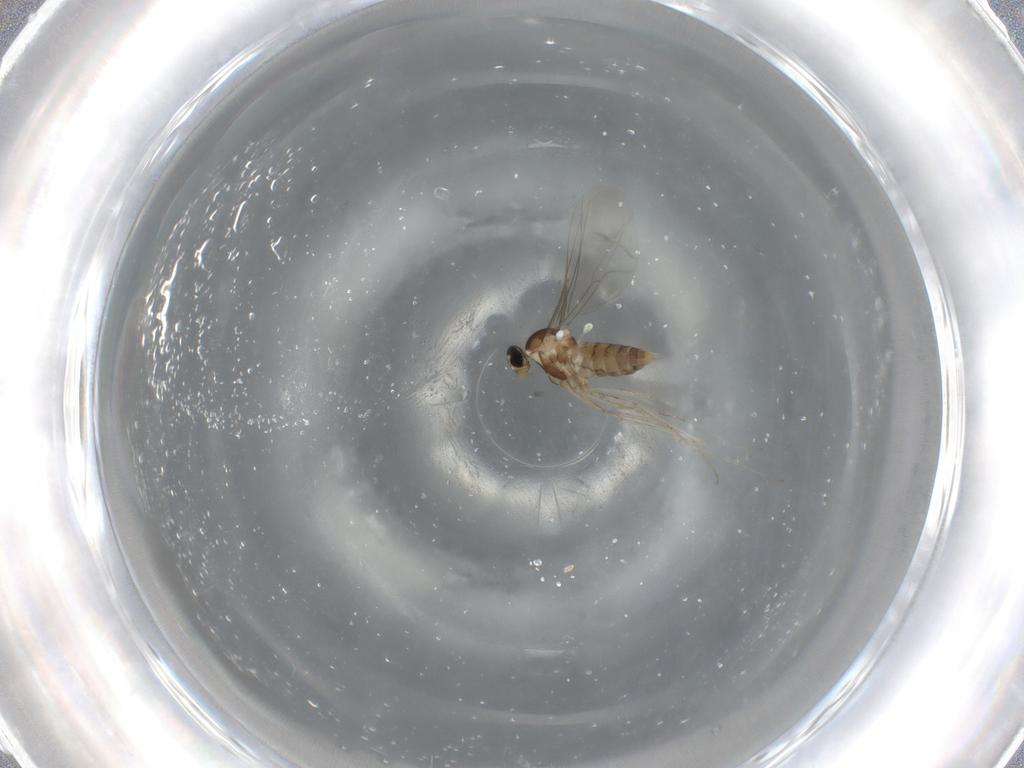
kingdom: Animalia
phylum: Arthropoda
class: Insecta
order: Diptera
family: Cecidomyiidae
